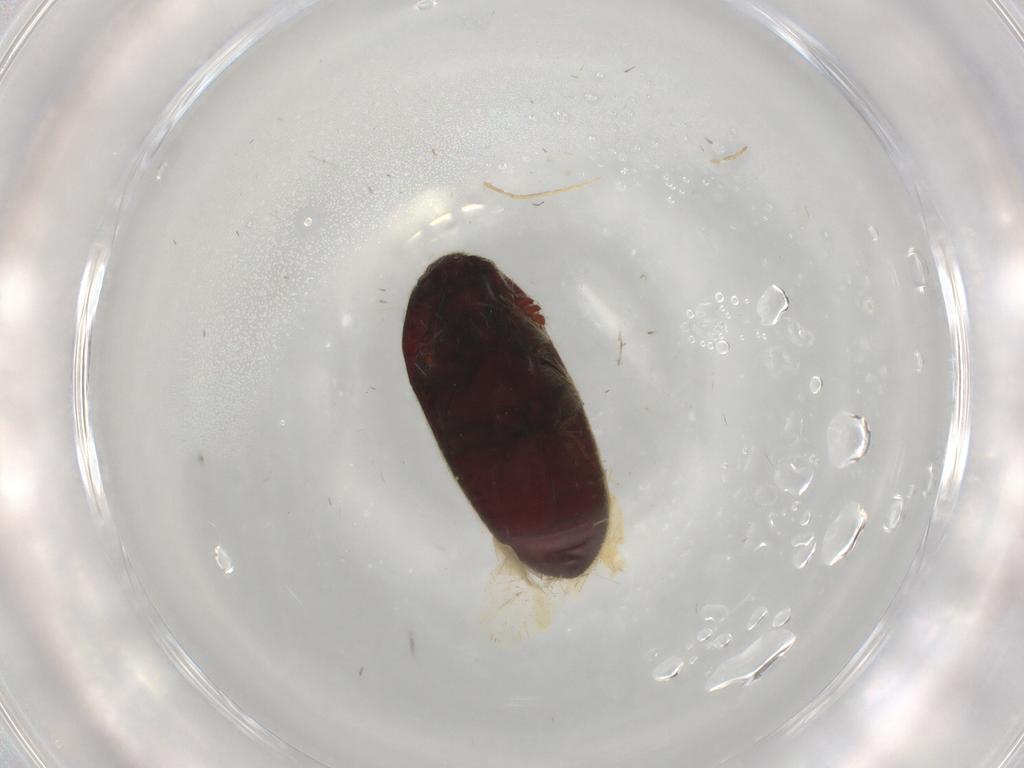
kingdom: Animalia
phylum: Arthropoda
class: Insecta
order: Coleoptera
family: Throscidae
